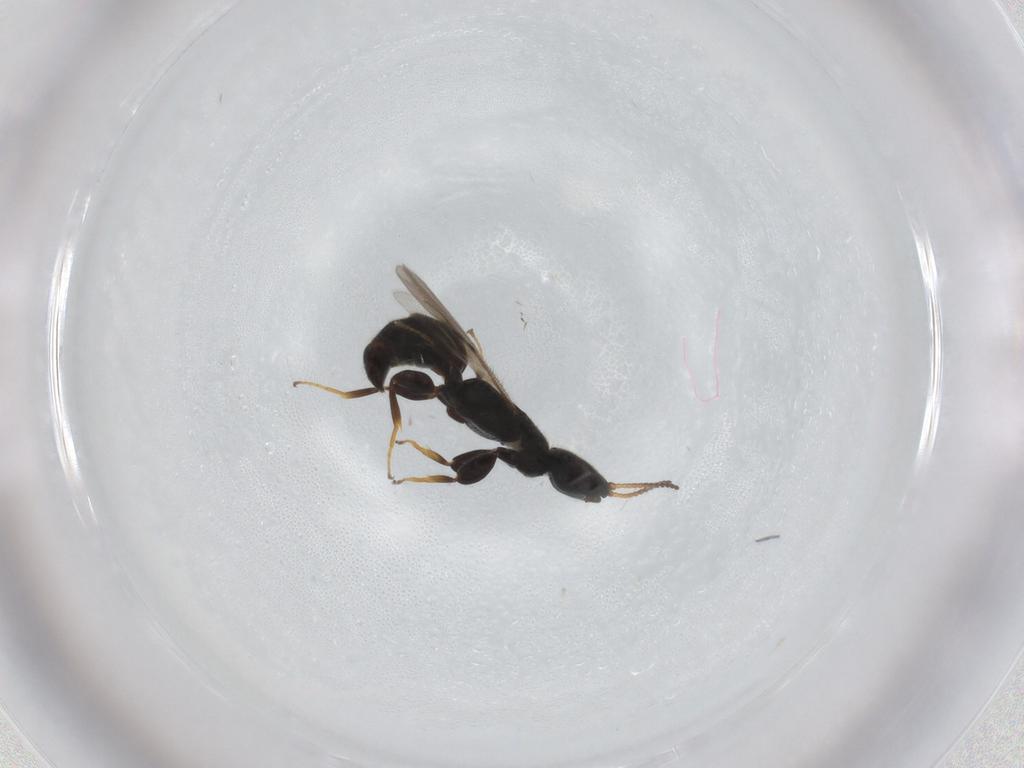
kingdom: Animalia
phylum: Arthropoda
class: Insecta
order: Hymenoptera
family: Bethylidae
